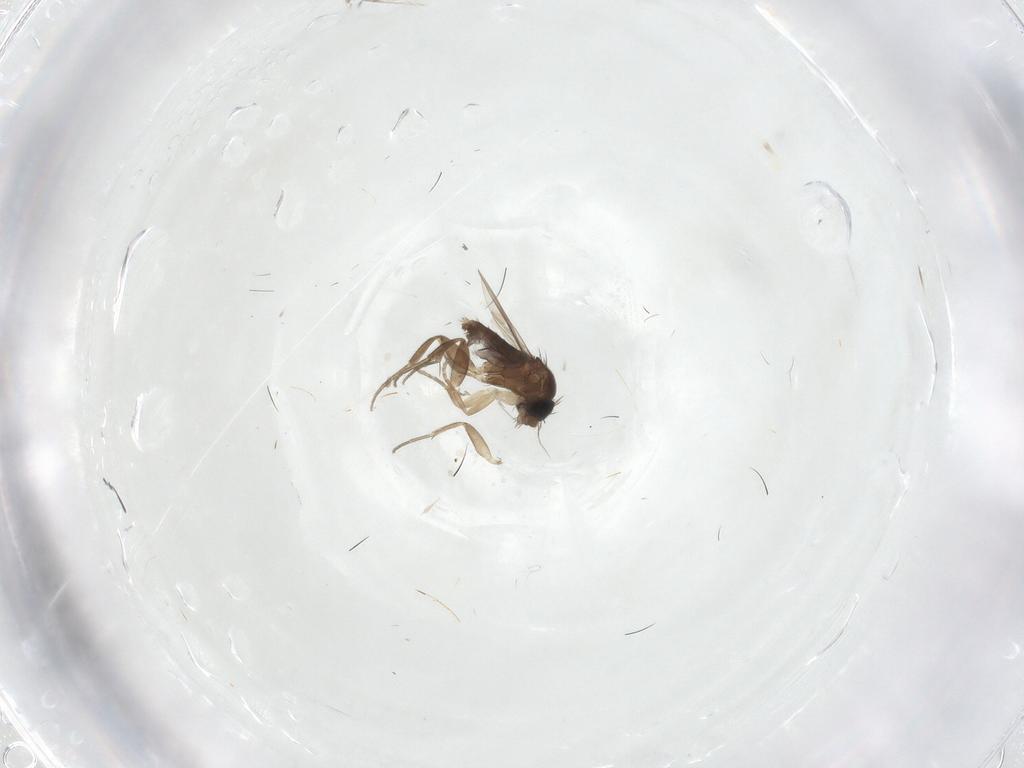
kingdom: Animalia
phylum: Arthropoda
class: Insecta
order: Diptera
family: Phoridae
